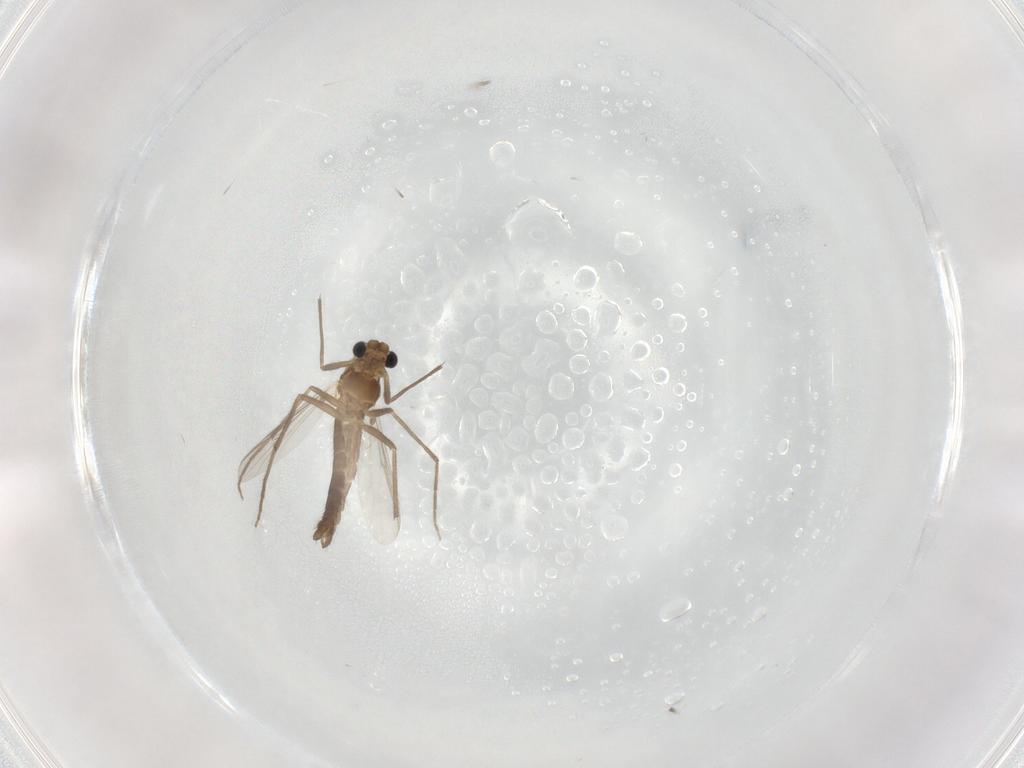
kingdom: Animalia
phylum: Arthropoda
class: Insecta
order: Diptera
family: Chironomidae
